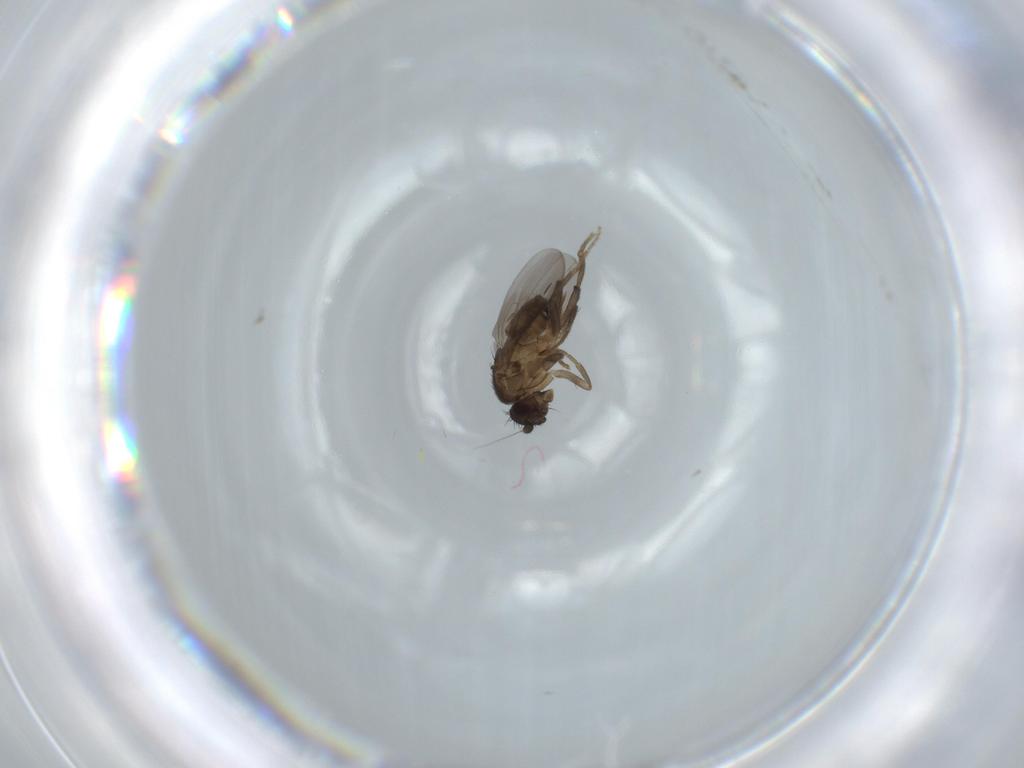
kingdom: Animalia
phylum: Arthropoda
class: Insecta
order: Diptera
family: Sphaeroceridae
